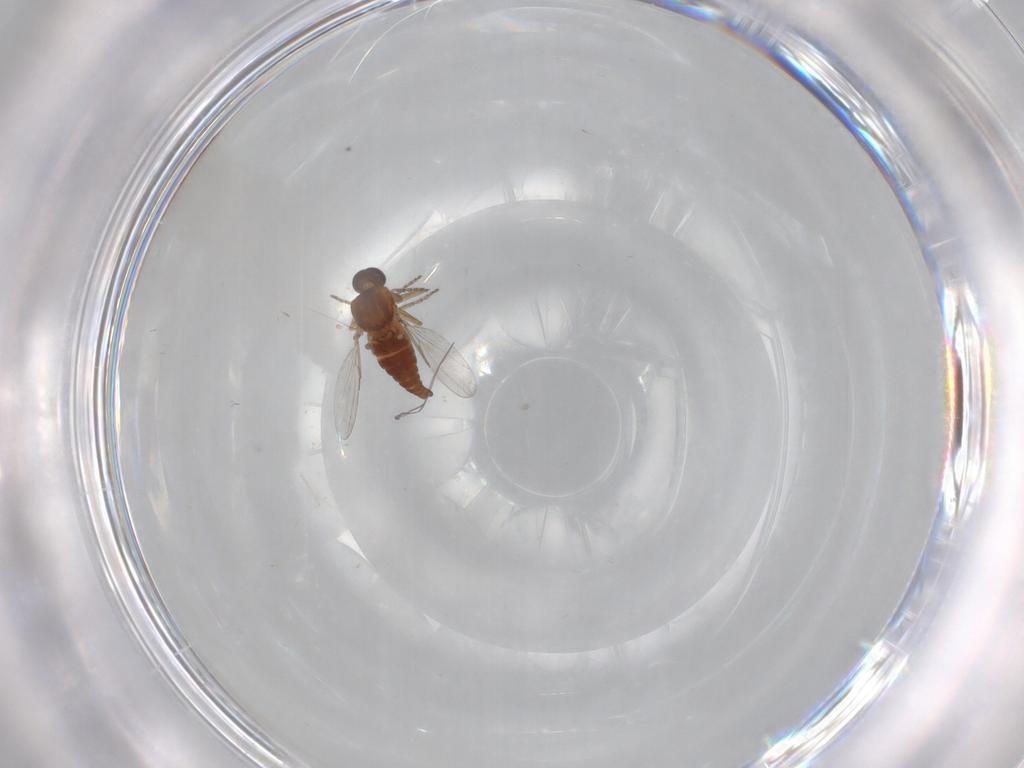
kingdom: Animalia
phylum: Arthropoda
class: Insecta
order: Diptera
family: Ceratopogonidae
